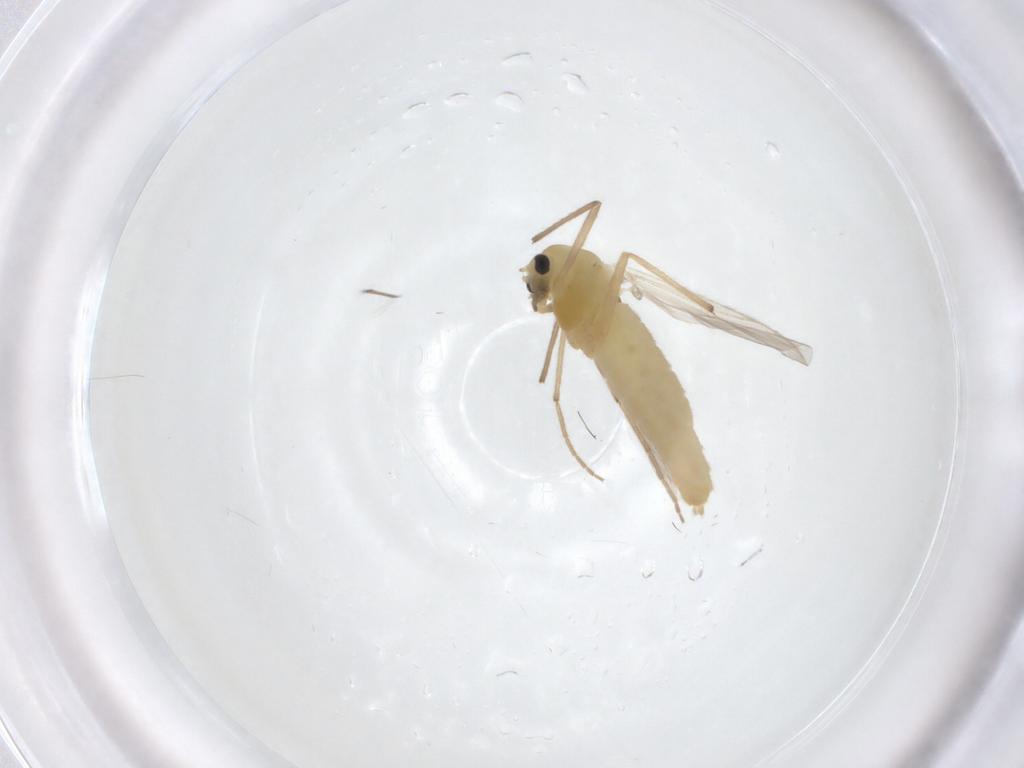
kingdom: Animalia
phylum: Arthropoda
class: Insecta
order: Diptera
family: Chironomidae
